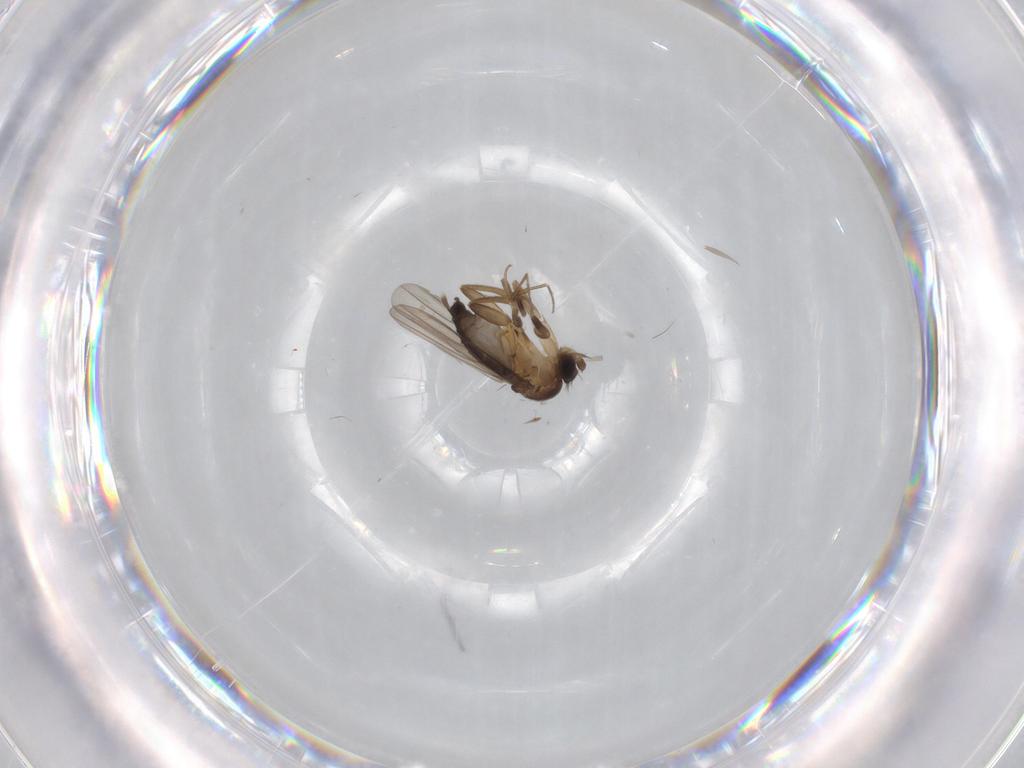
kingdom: Animalia
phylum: Arthropoda
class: Insecta
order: Diptera
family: Phoridae
